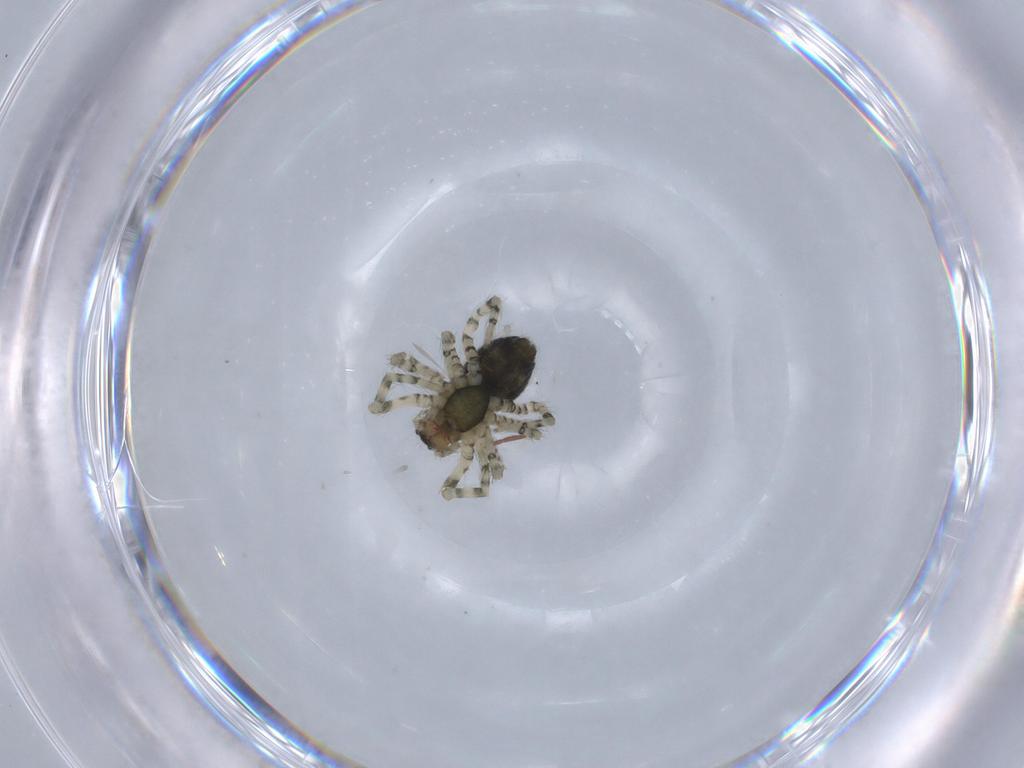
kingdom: Animalia
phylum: Arthropoda
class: Arachnida
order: Araneae
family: Corinnidae
